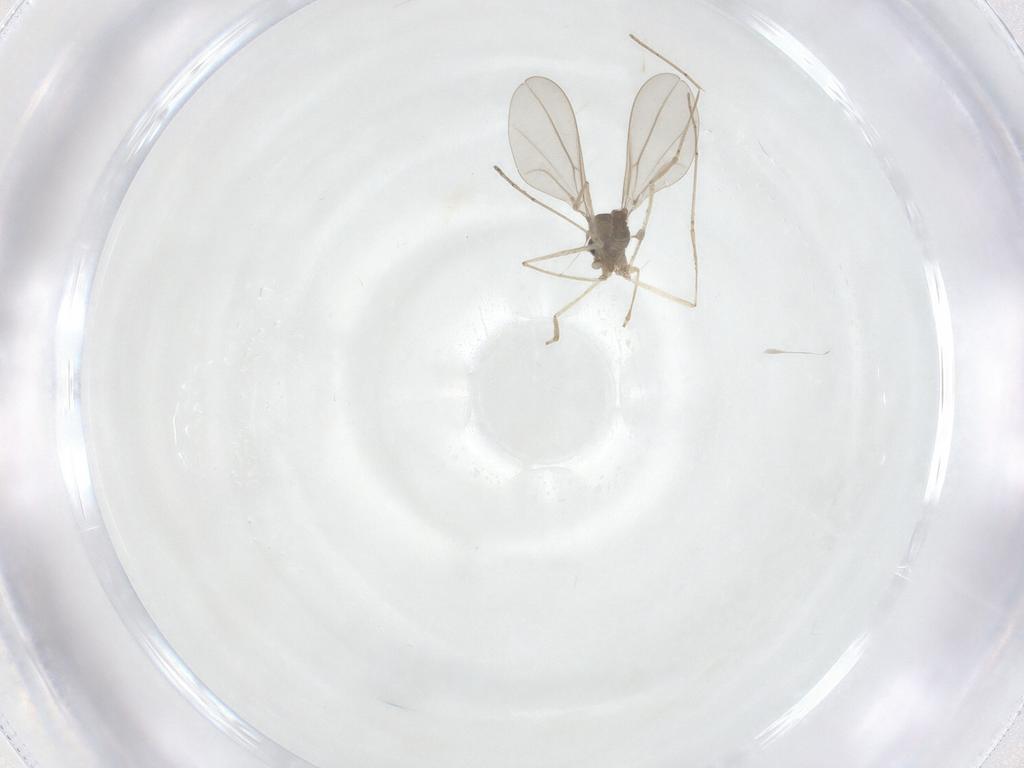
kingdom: Animalia
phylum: Arthropoda
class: Insecta
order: Diptera
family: Cecidomyiidae
